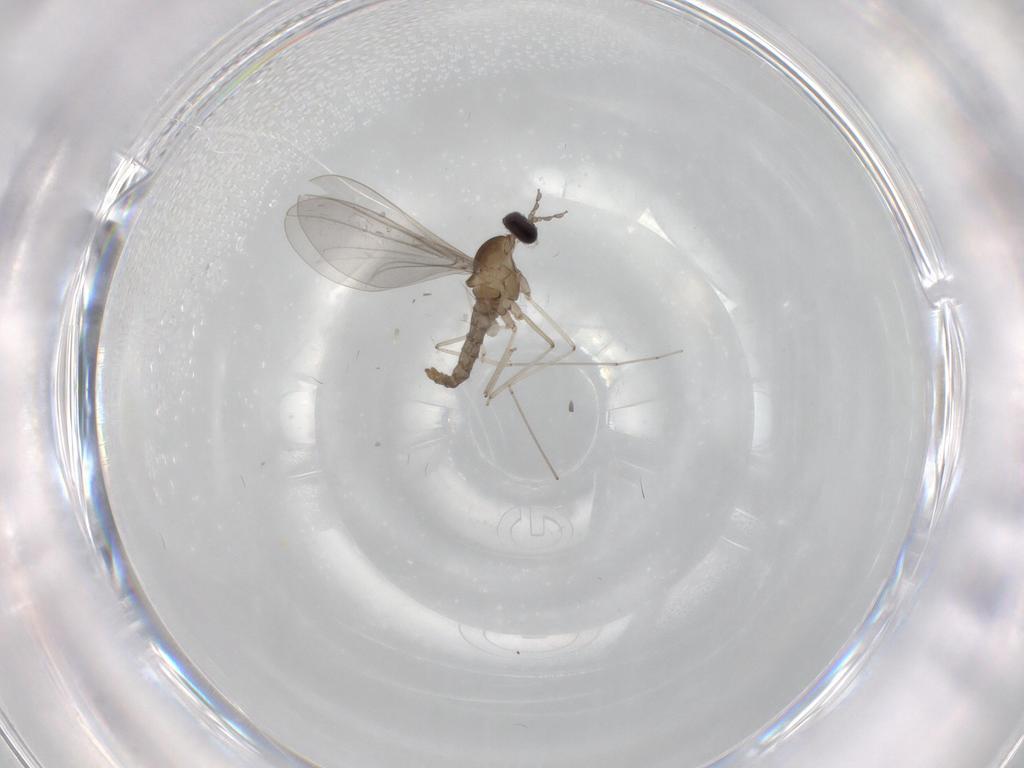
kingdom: Animalia
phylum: Arthropoda
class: Insecta
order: Diptera
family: Cecidomyiidae
